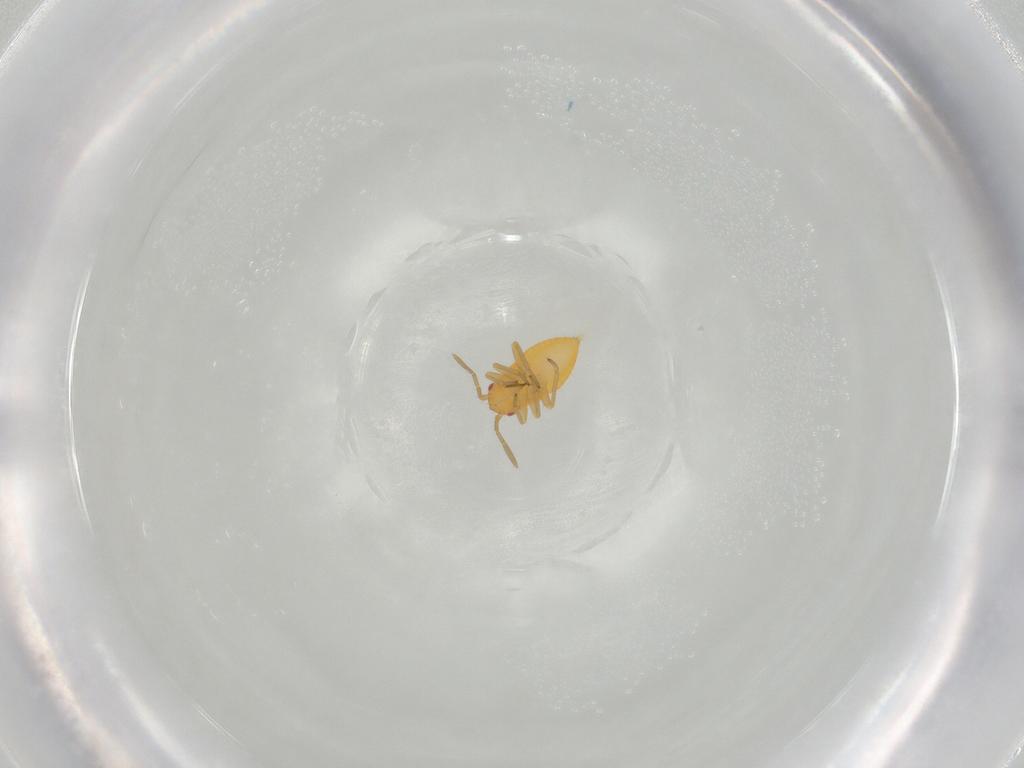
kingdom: Animalia
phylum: Arthropoda
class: Insecta
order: Hemiptera
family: Miridae
